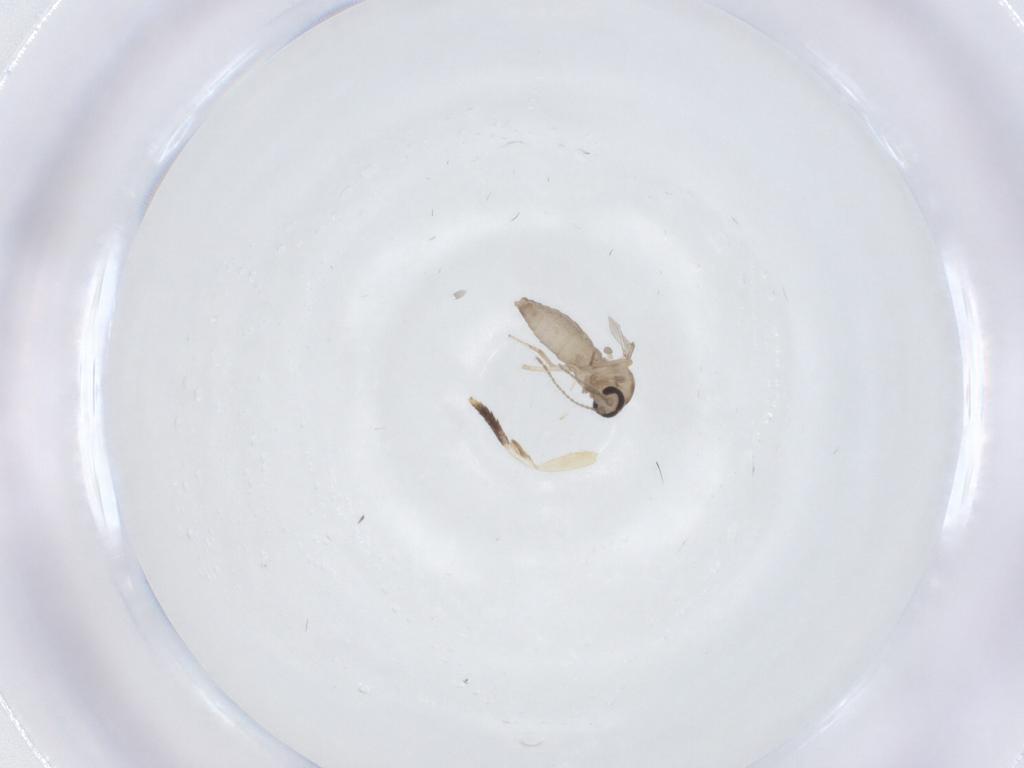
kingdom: Animalia
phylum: Arthropoda
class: Insecta
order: Diptera
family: Ceratopogonidae
